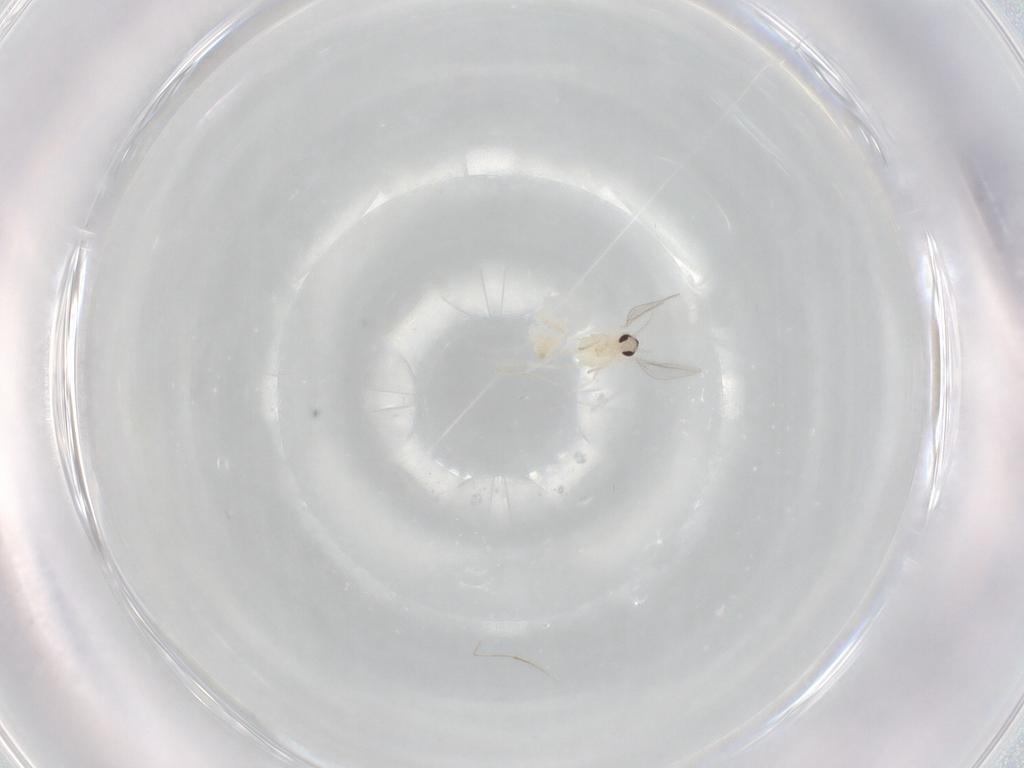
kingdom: Animalia
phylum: Arthropoda
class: Insecta
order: Diptera
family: Cecidomyiidae
